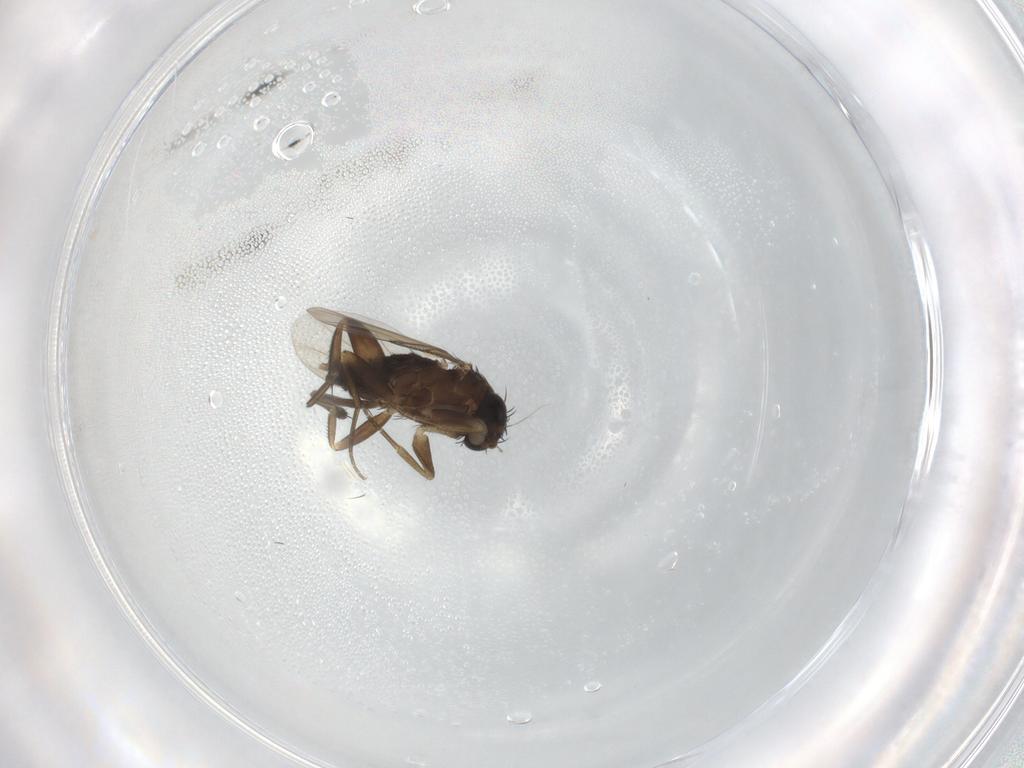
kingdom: Animalia
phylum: Arthropoda
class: Insecta
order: Diptera
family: Phoridae
